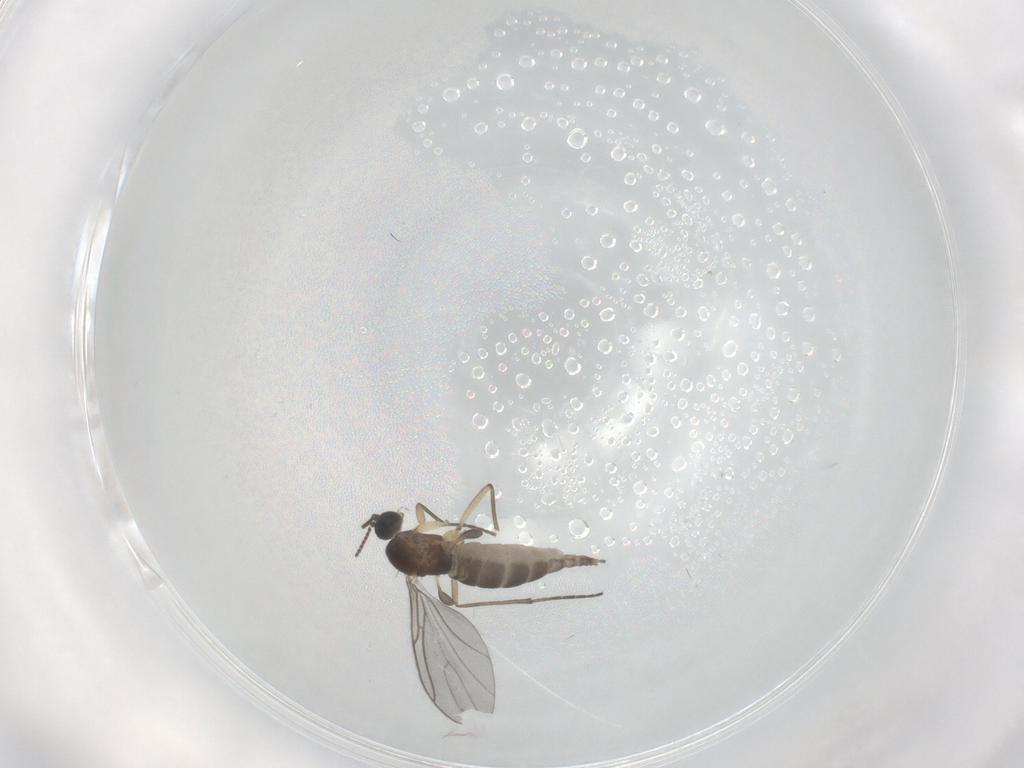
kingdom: Animalia
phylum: Arthropoda
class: Insecta
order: Diptera
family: Sciaridae
